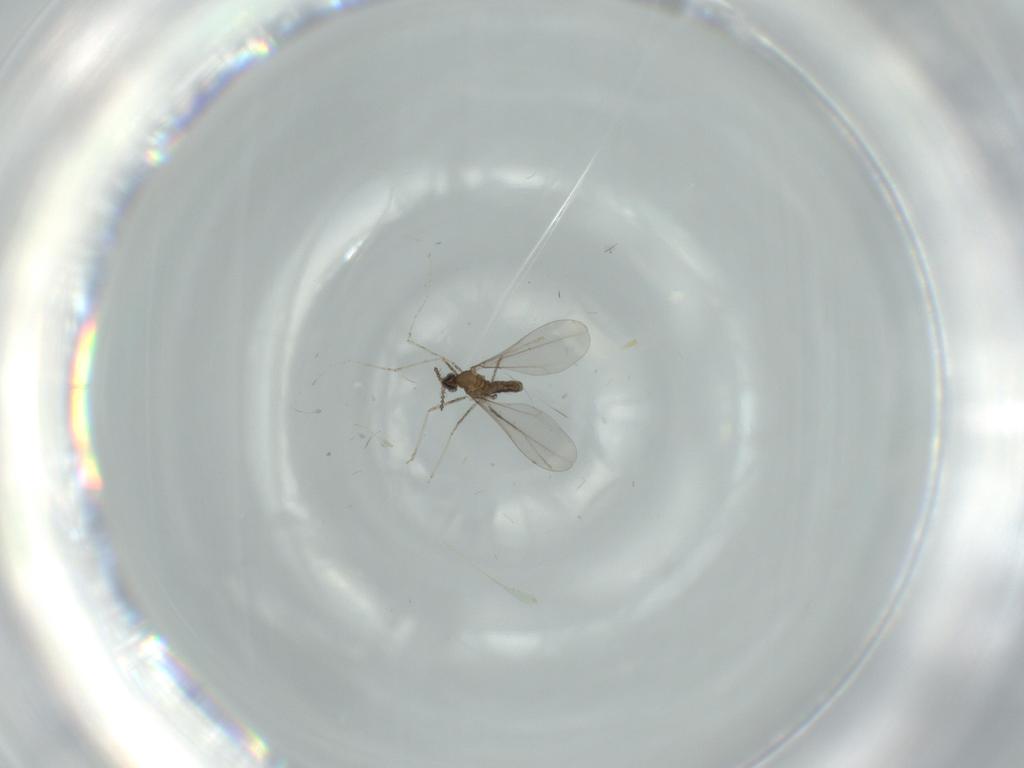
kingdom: Animalia
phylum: Arthropoda
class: Insecta
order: Diptera
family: Cecidomyiidae
